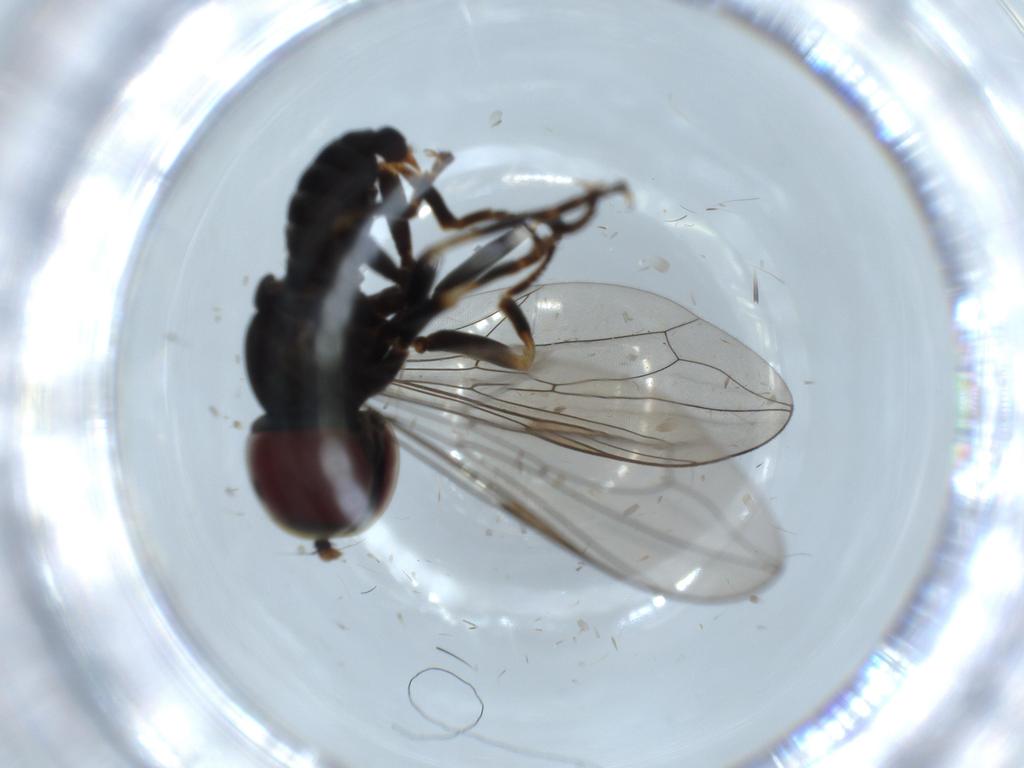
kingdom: Animalia
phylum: Arthropoda
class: Insecta
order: Diptera
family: Pipunculidae
